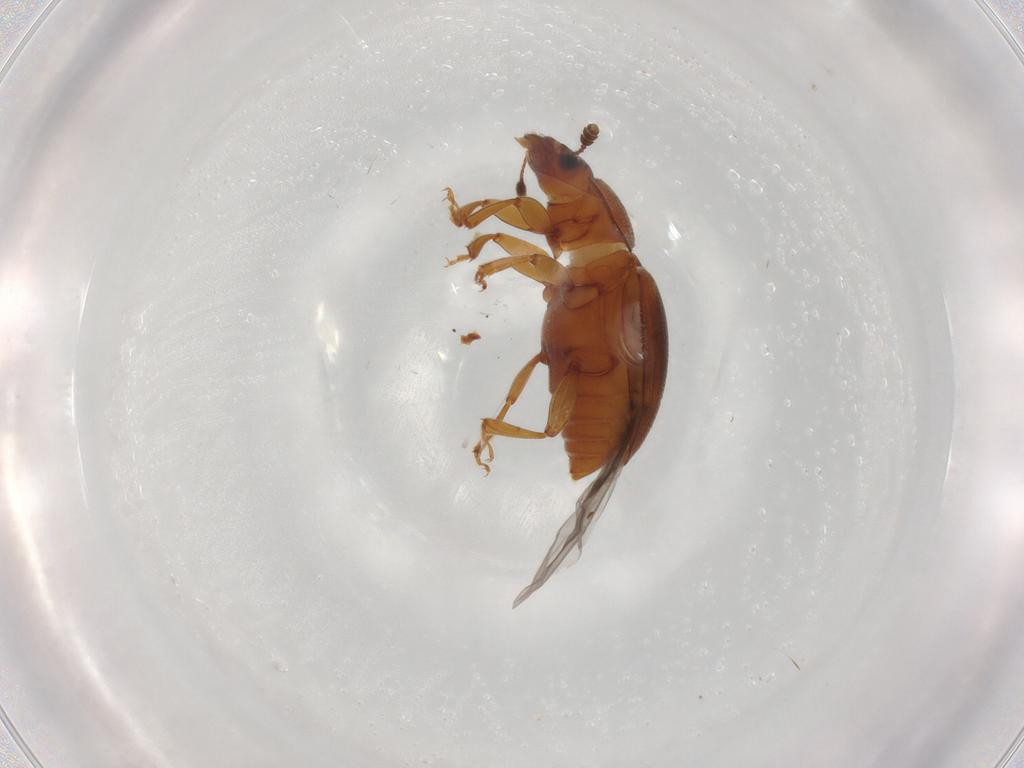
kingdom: Animalia
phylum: Arthropoda
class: Insecta
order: Coleoptera
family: Nitidulidae
